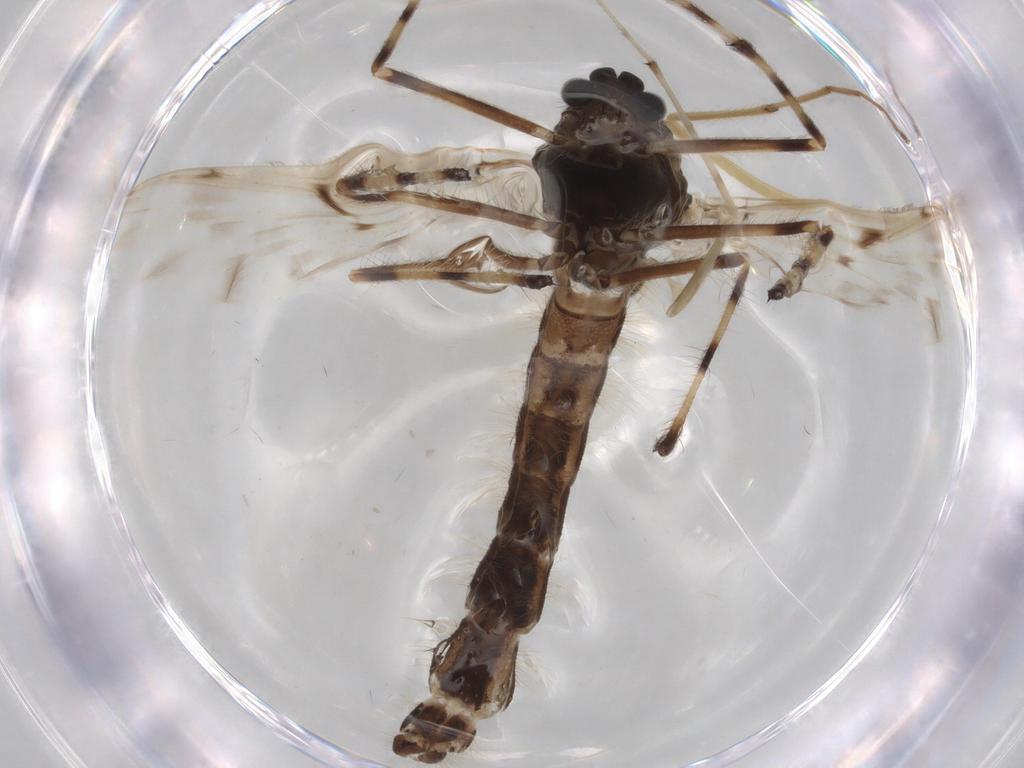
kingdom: Animalia
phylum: Arthropoda
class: Insecta
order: Diptera
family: Chironomidae
